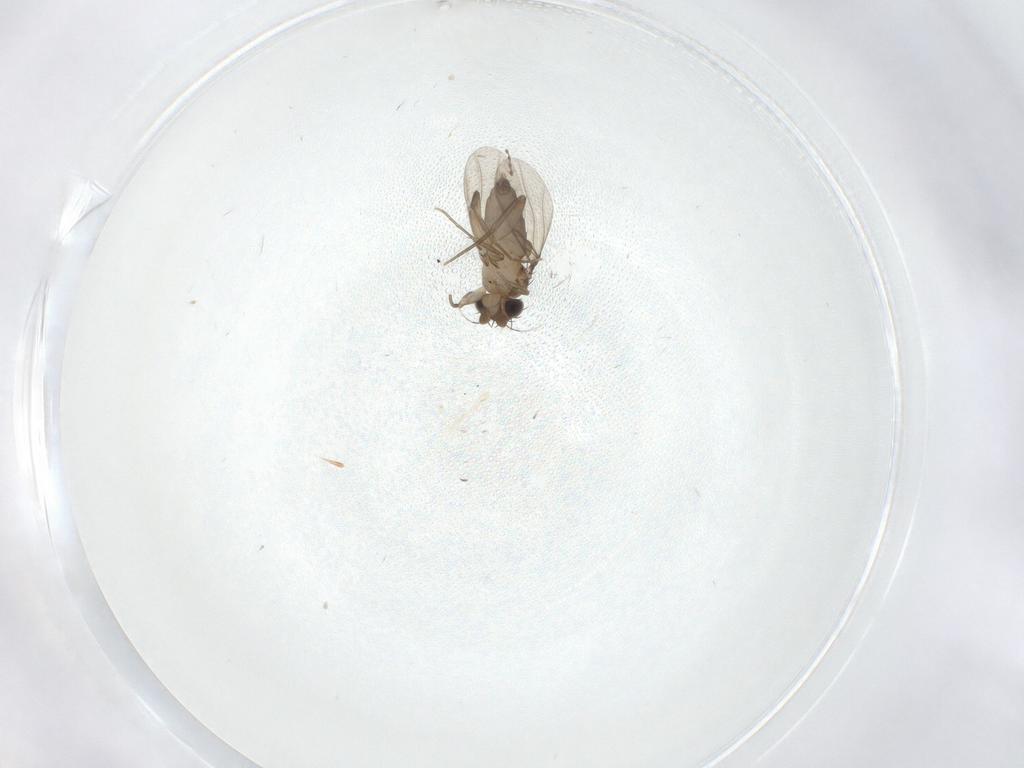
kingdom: Animalia
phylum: Arthropoda
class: Insecta
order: Diptera
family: Phoridae
